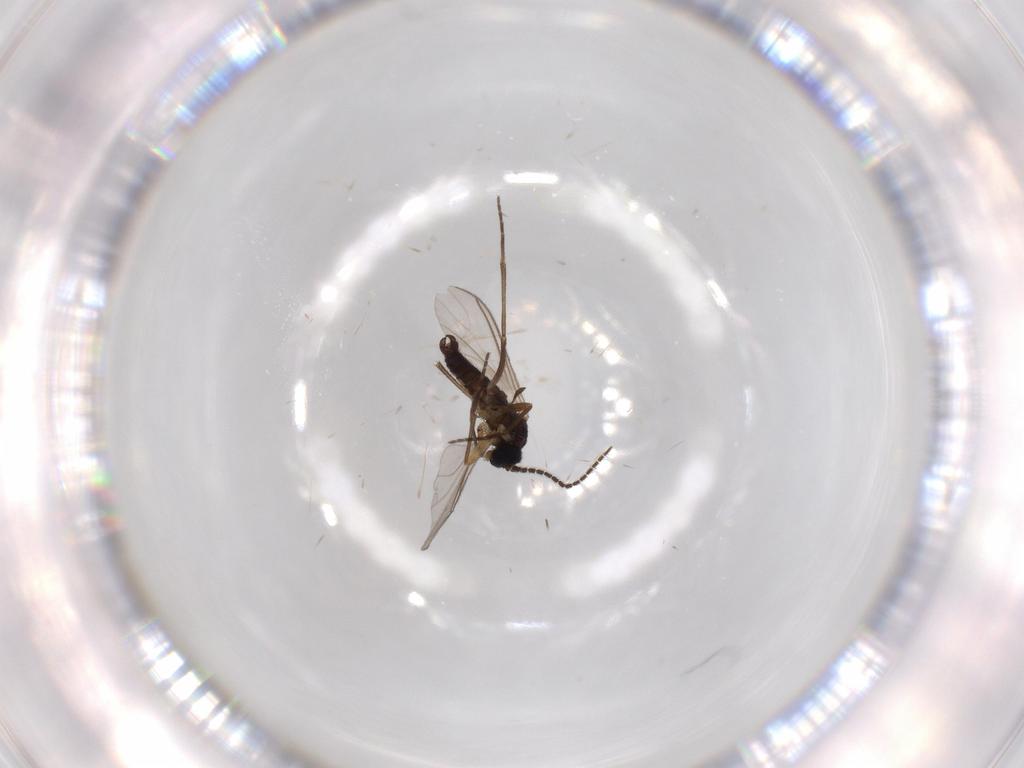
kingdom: Animalia
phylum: Arthropoda
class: Insecta
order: Diptera
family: Sciaridae
